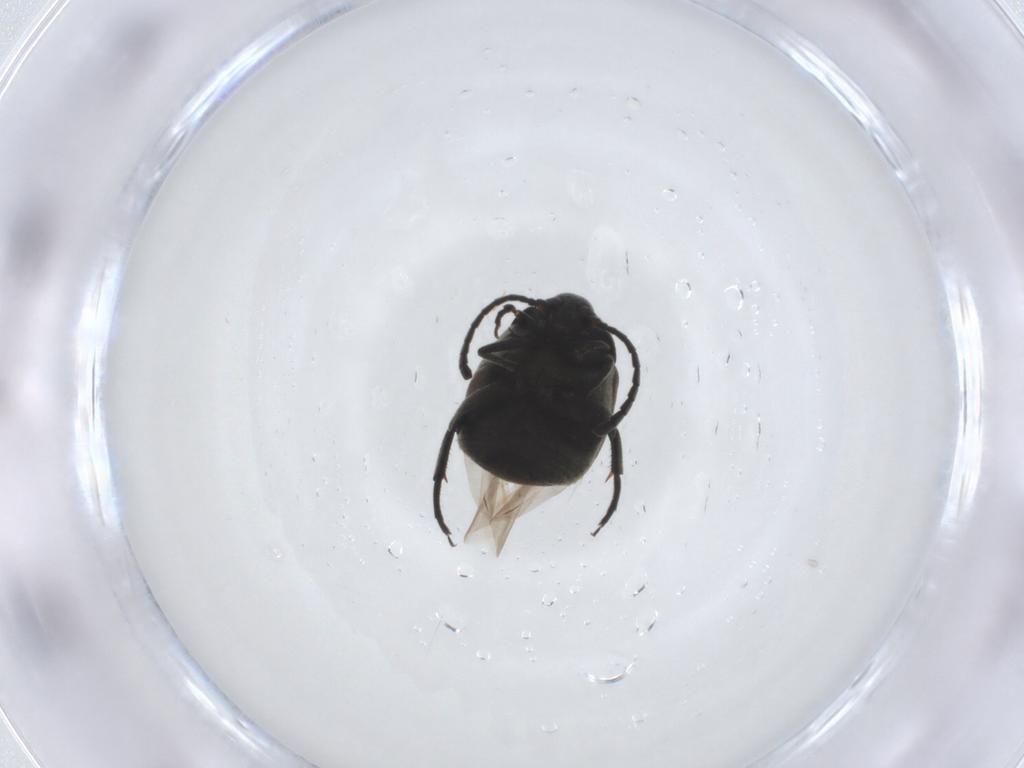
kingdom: Animalia
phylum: Arthropoda
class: Insecta
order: Coleoptera
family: Chrysomelidae
